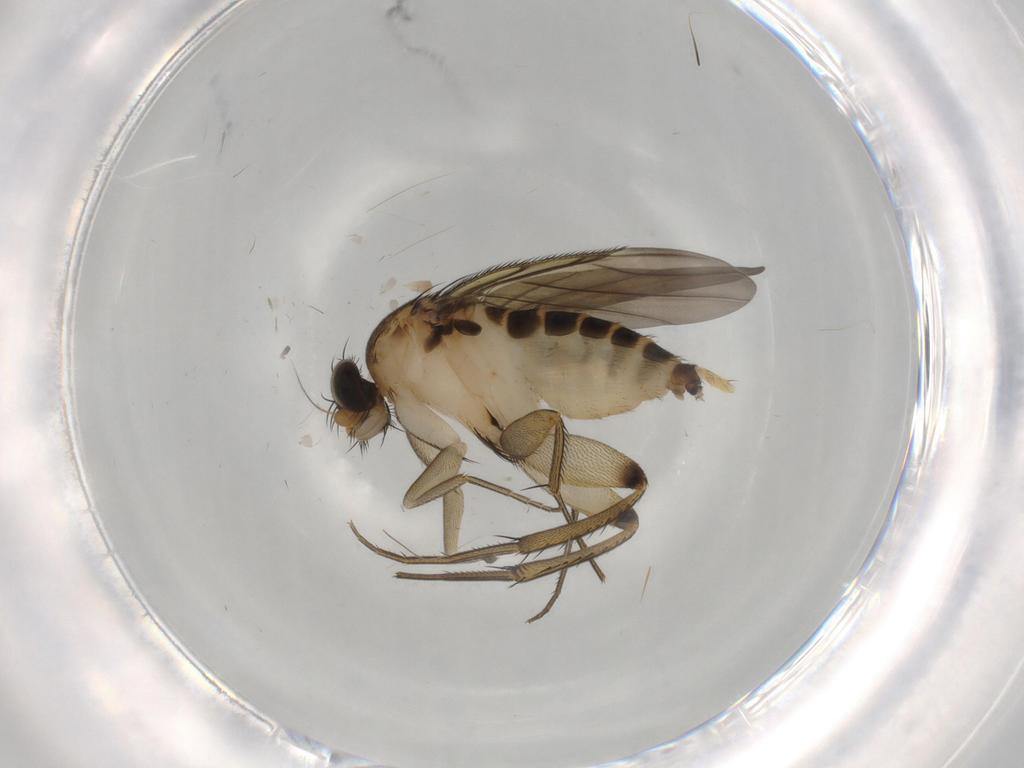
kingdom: Animalia
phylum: Arthropoda
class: Insecta
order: Diptera
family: Phoridae
